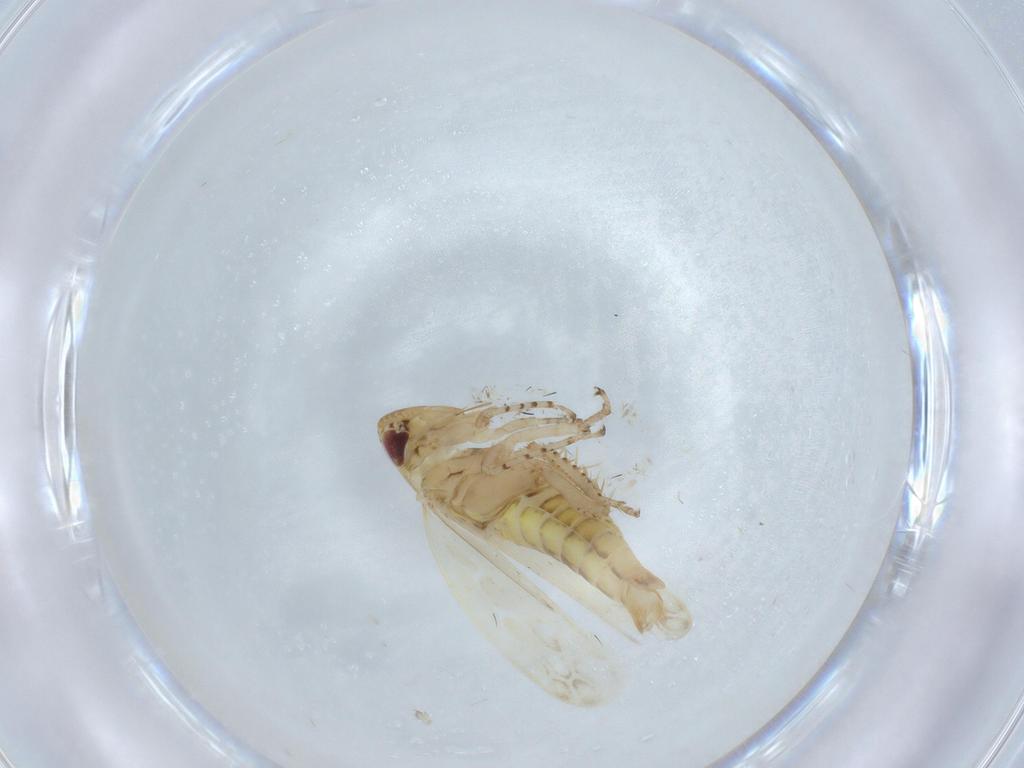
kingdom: Animalia
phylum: Arthropoda
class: Insecta
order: Hemiptera
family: Cicadellidae
